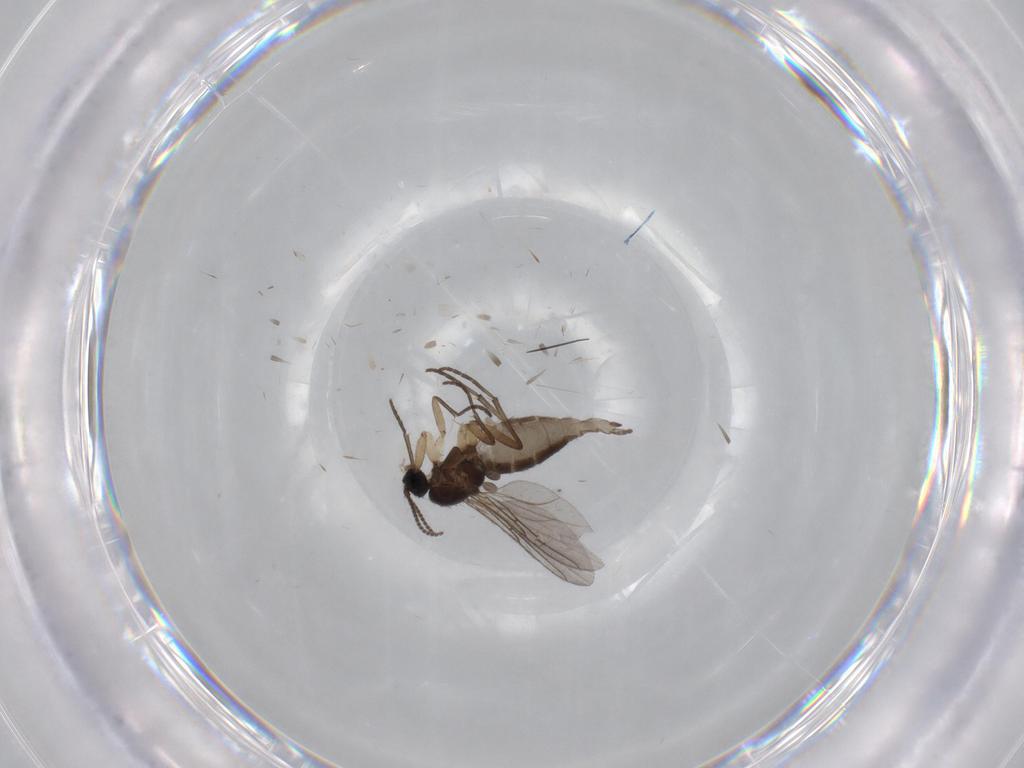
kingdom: Animalia
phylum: Arthropoda
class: Insecta
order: Diptera
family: Sciaridae
